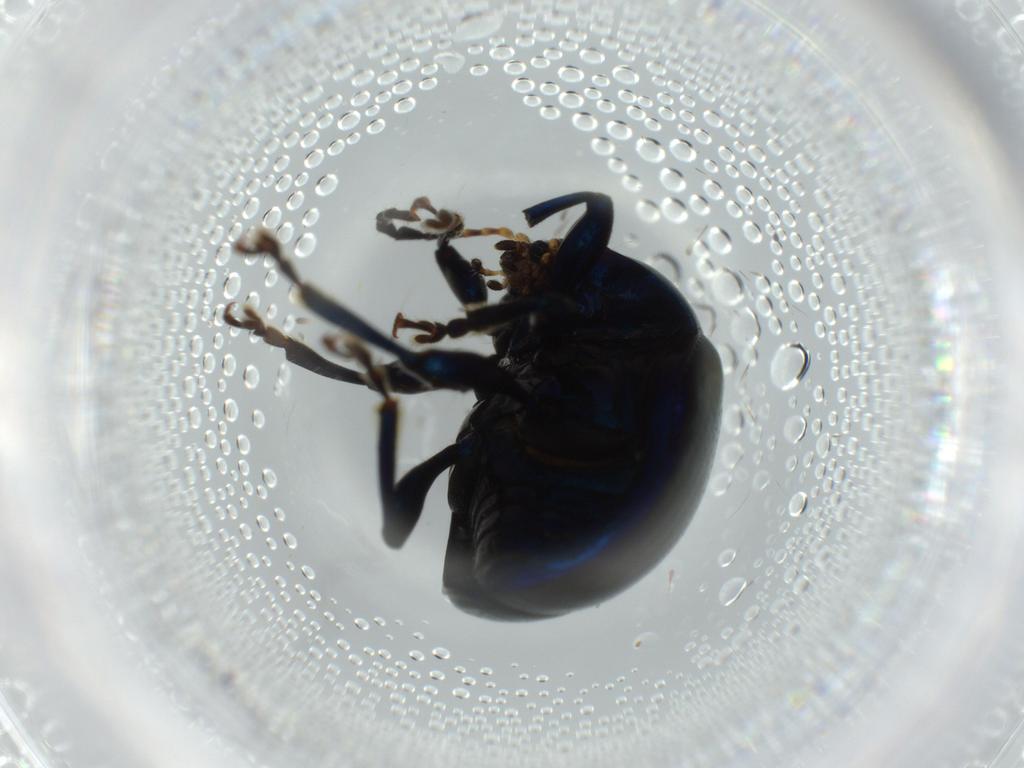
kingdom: Animalia
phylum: Arthropoda
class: Insecta
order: Coleoptera
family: Chrysomelidae
